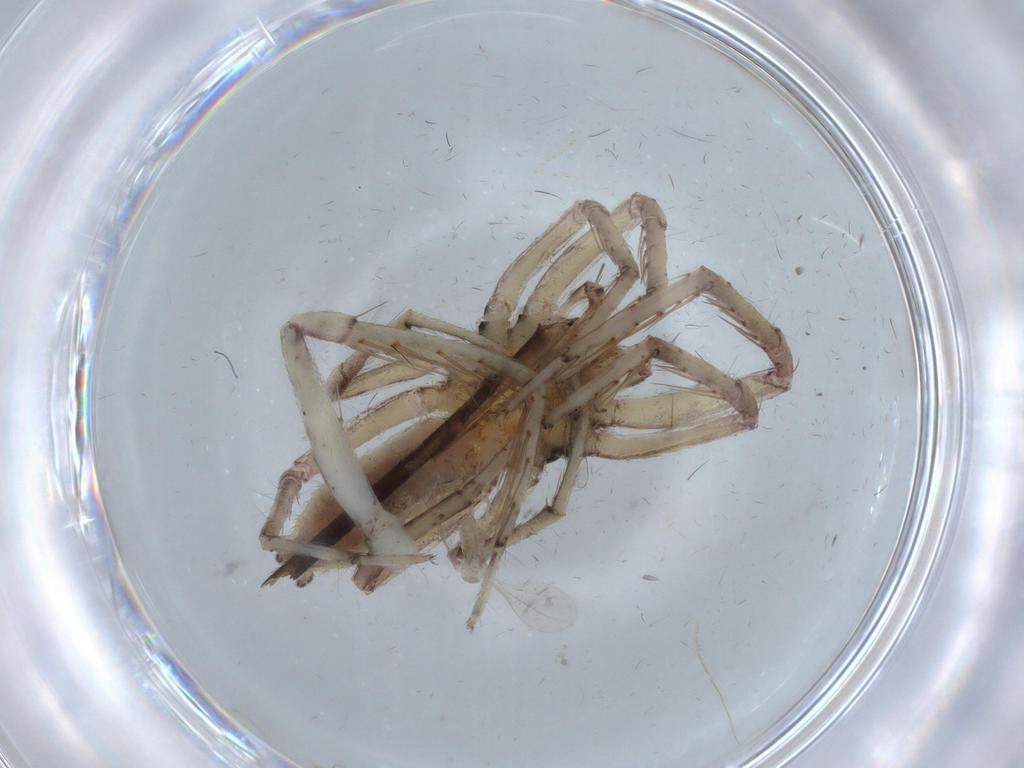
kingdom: Animalia
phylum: Arthropoda
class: Arachnida
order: Araneae
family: Senoculidae
